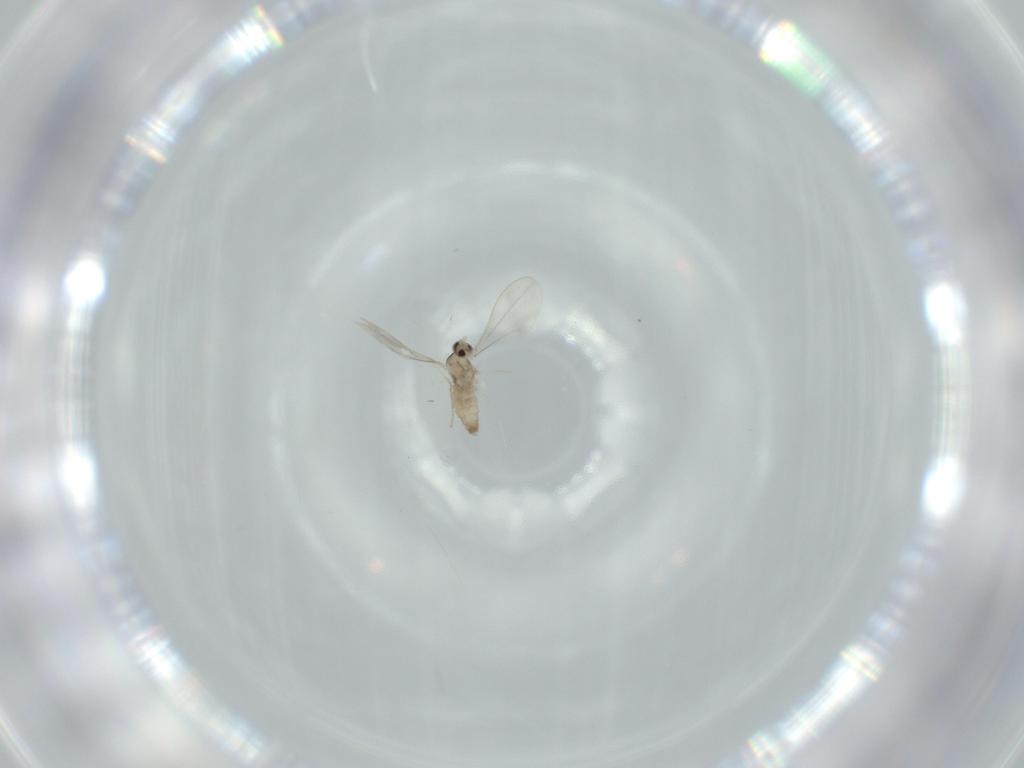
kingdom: Animalia
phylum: Arthropoda
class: Insecta
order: Diptera
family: Cecidomyiidae
